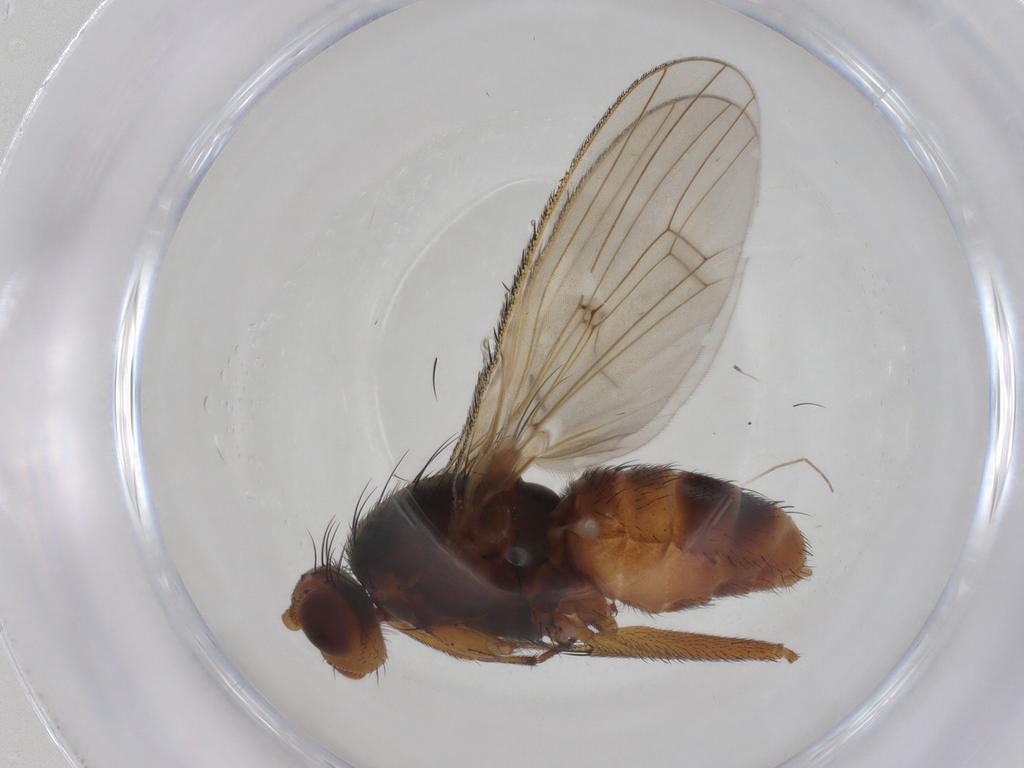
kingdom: Animalia
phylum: Arthropoda
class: Insecta
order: Diptera
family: Heleomyzidae
